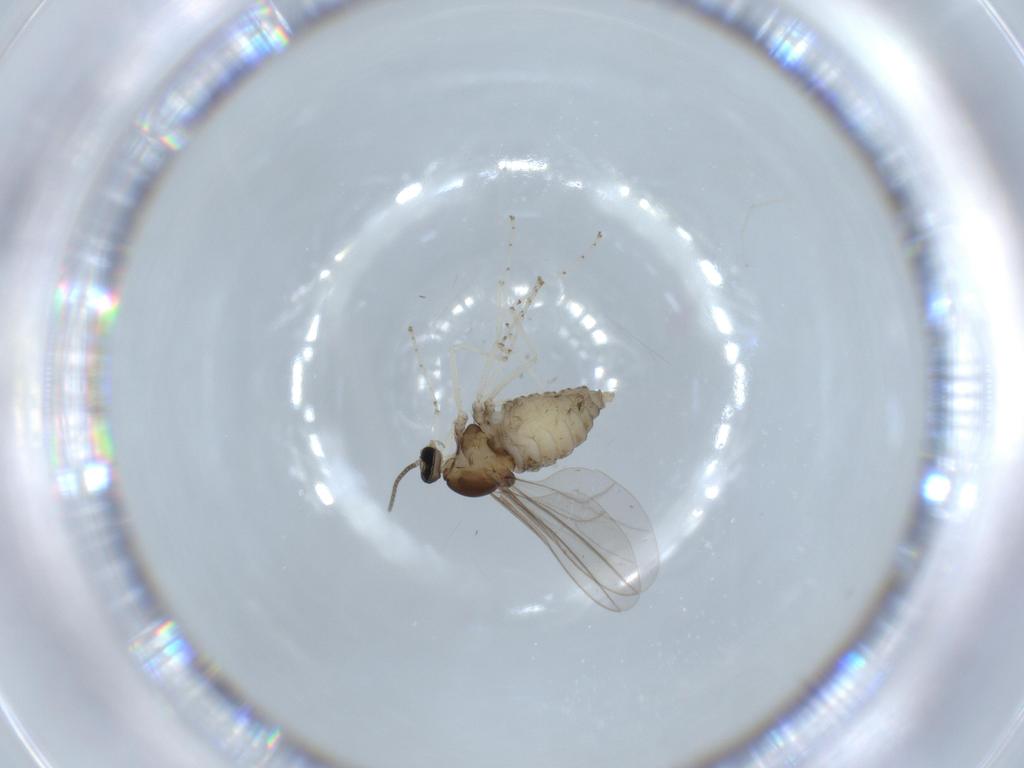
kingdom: Animalia
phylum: Arthropoda
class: Insecta
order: Diptera
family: Cecidomyiidae
